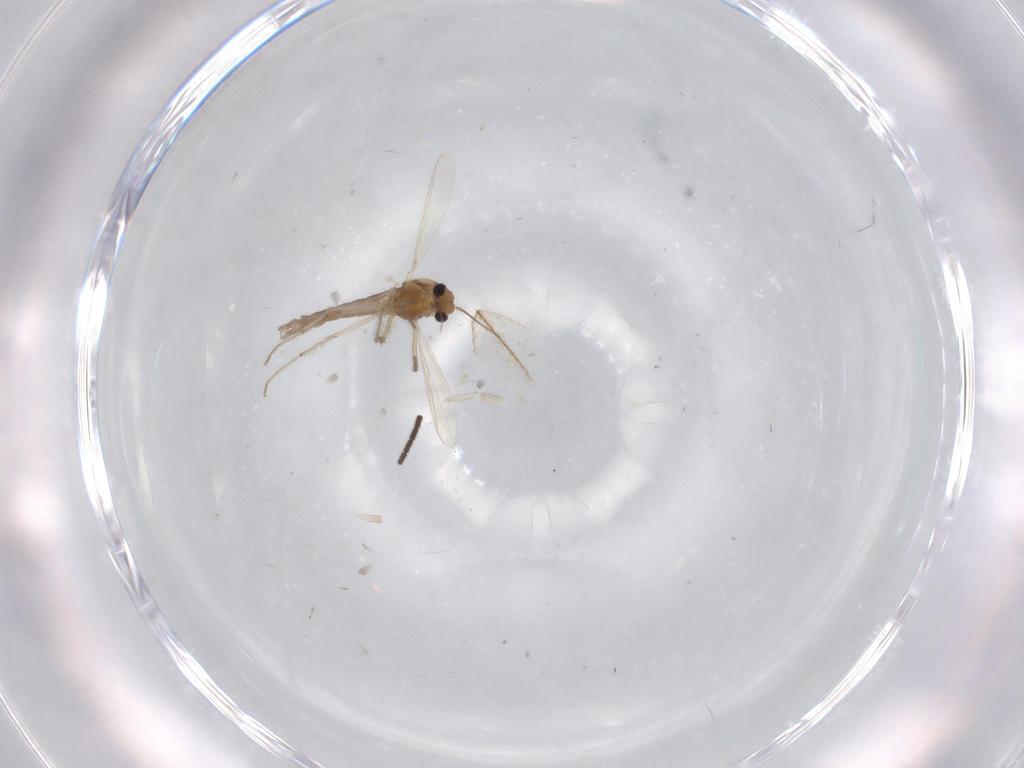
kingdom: Animalia
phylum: Arthropoda
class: Insecta
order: Diptera
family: Chironomidae
